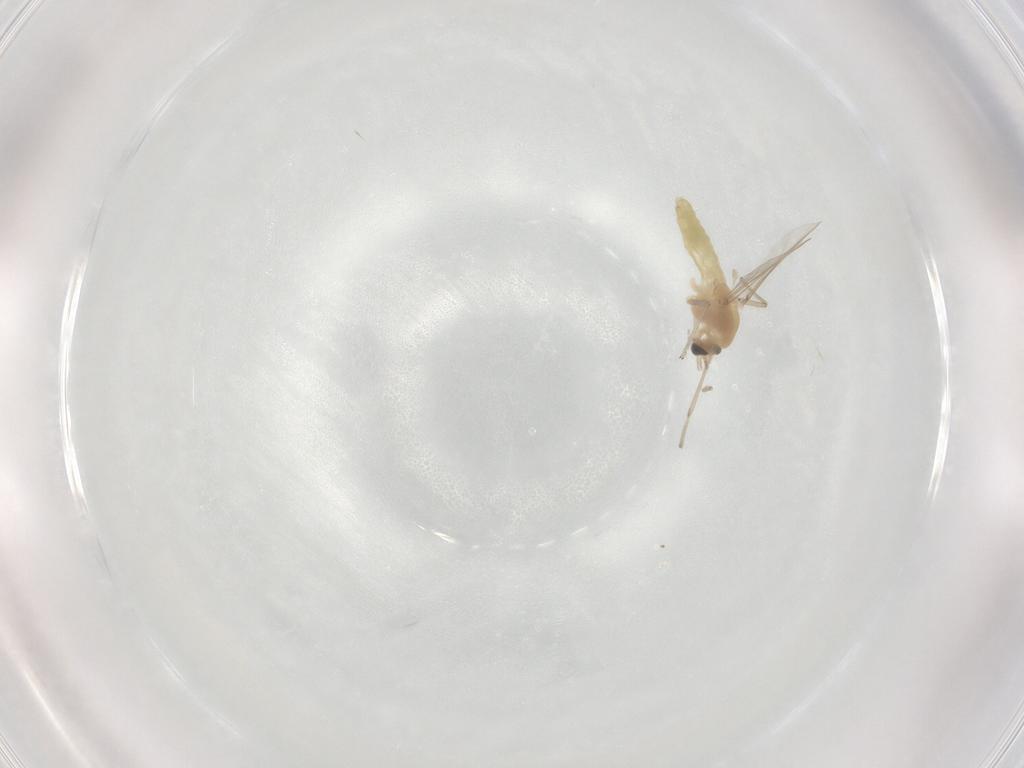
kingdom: Animalia
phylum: Arthropoda
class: Insecta
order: Diptera
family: Chironomidae
